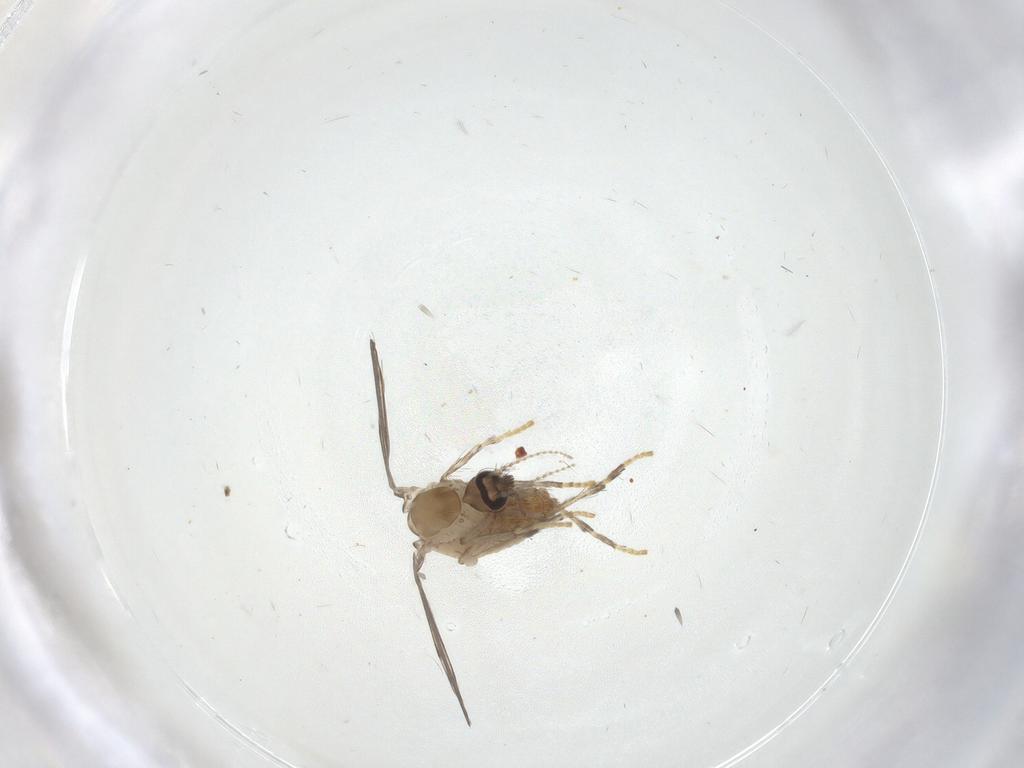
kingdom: Animalia
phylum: Arthropoda
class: Insecta
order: Diptera
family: Psychodidae
